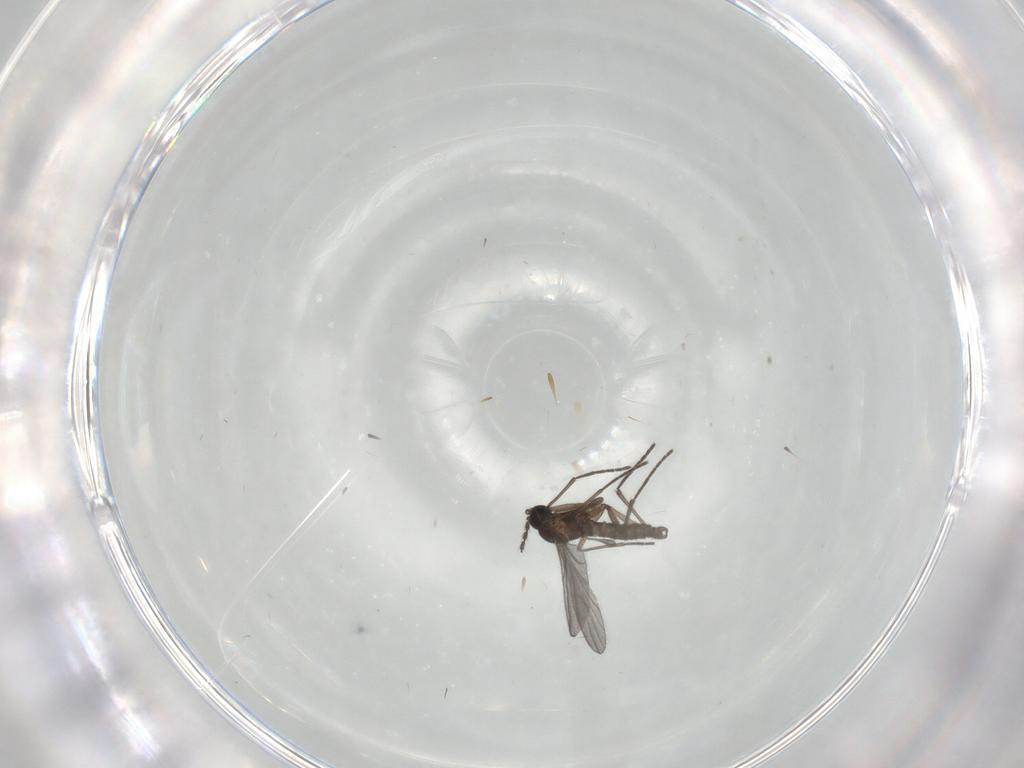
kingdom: Animalia
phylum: Arthropoda
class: Insecta
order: Diptera
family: Sciaridae
